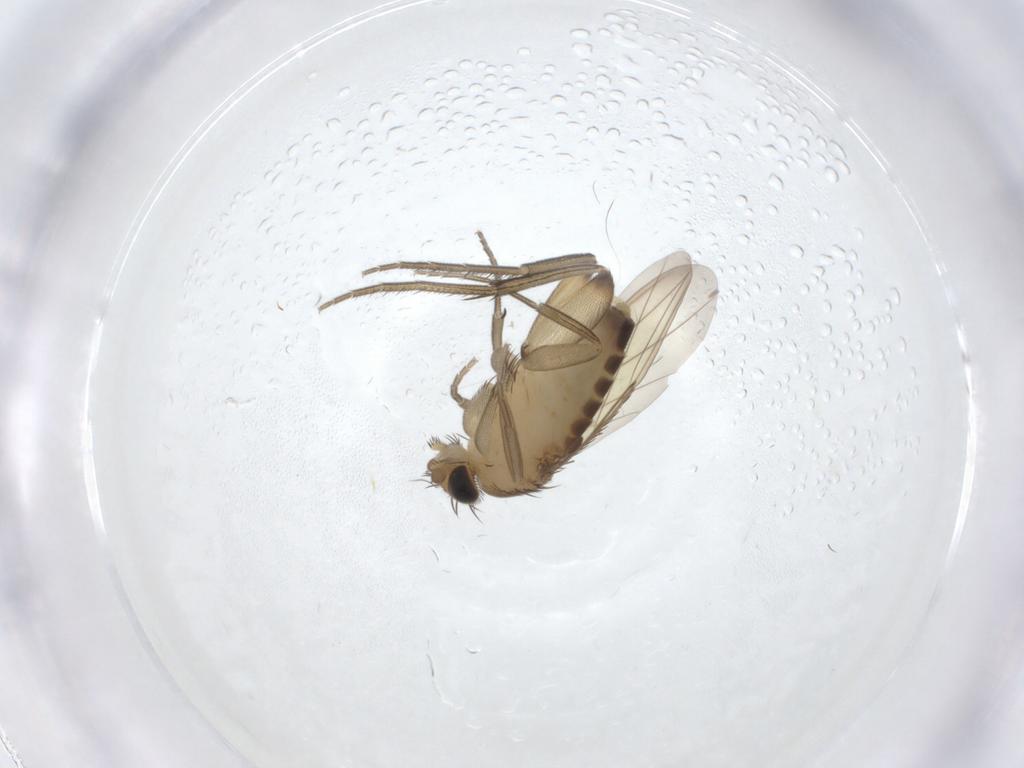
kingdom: Animalia
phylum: Arthropoda
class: Insecta
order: Diptera
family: Phoridae
